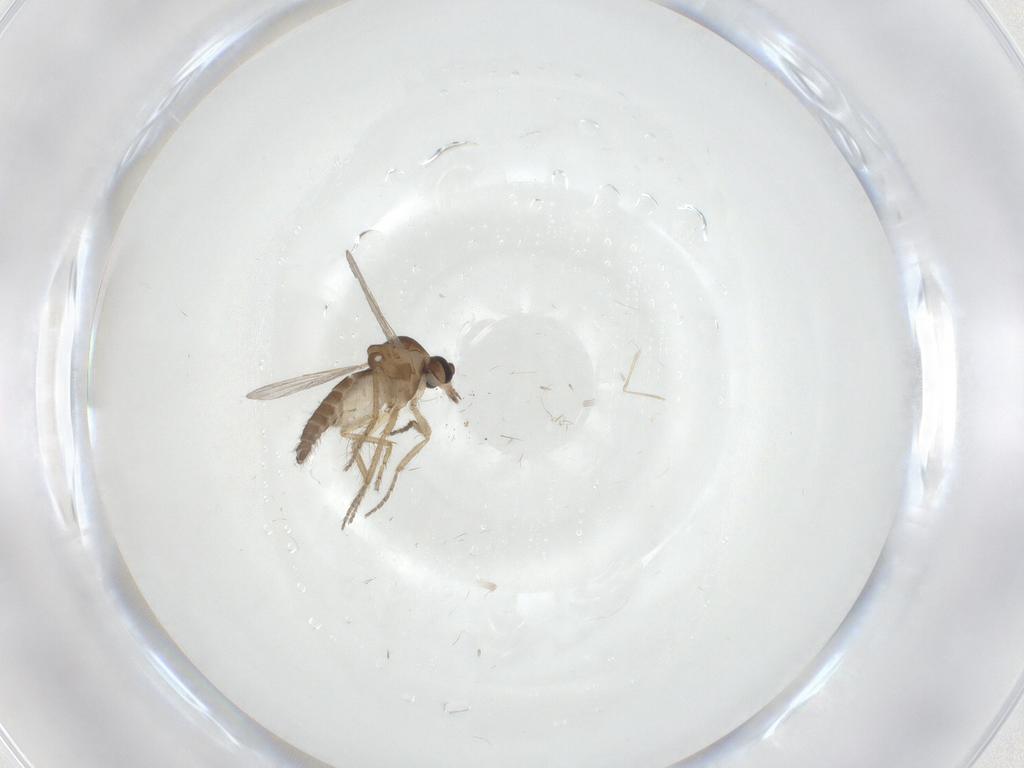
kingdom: Animalia
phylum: Arthropoda
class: Insecta
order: Diptera
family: Ceratopogonidae
